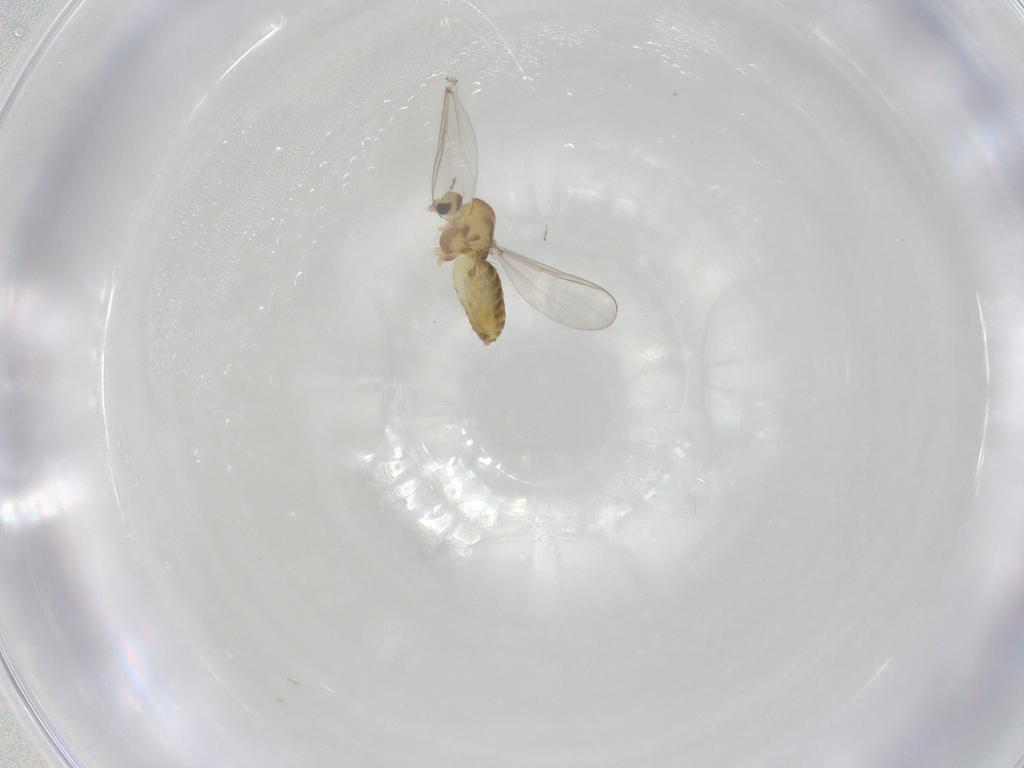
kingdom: Animalia
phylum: Arthropoda
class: Insecta
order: Diptera
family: Chironomidae
